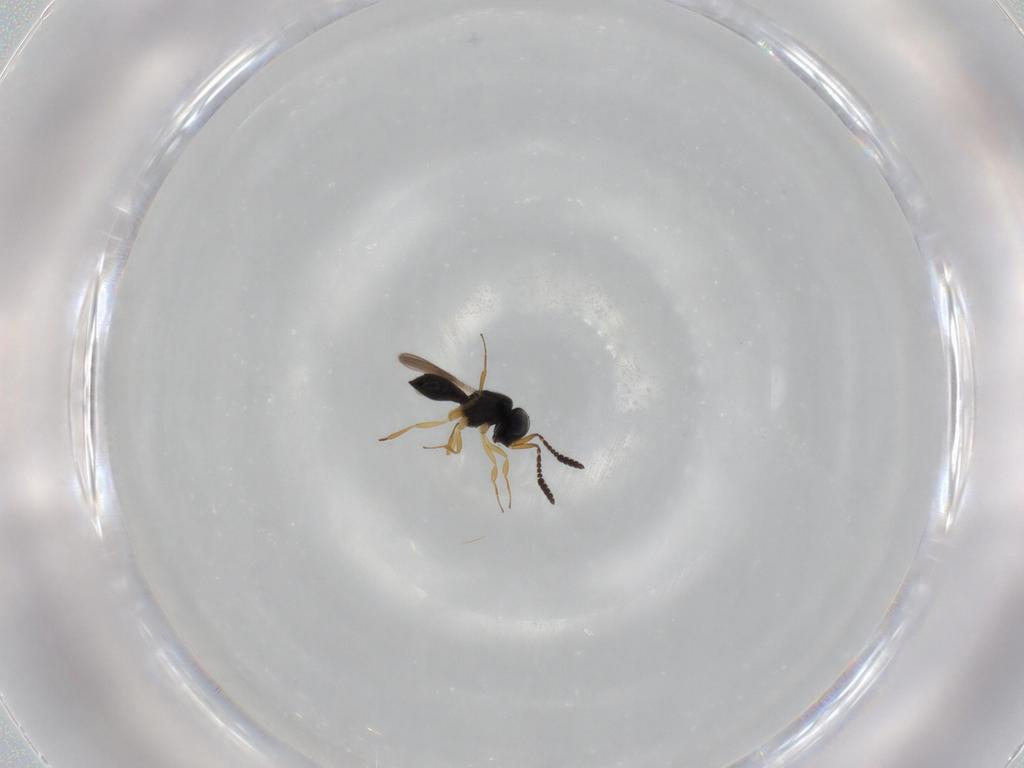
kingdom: Animalia
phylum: Arthropoda
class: Insecta
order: Hymenoptera
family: Scelionidae
